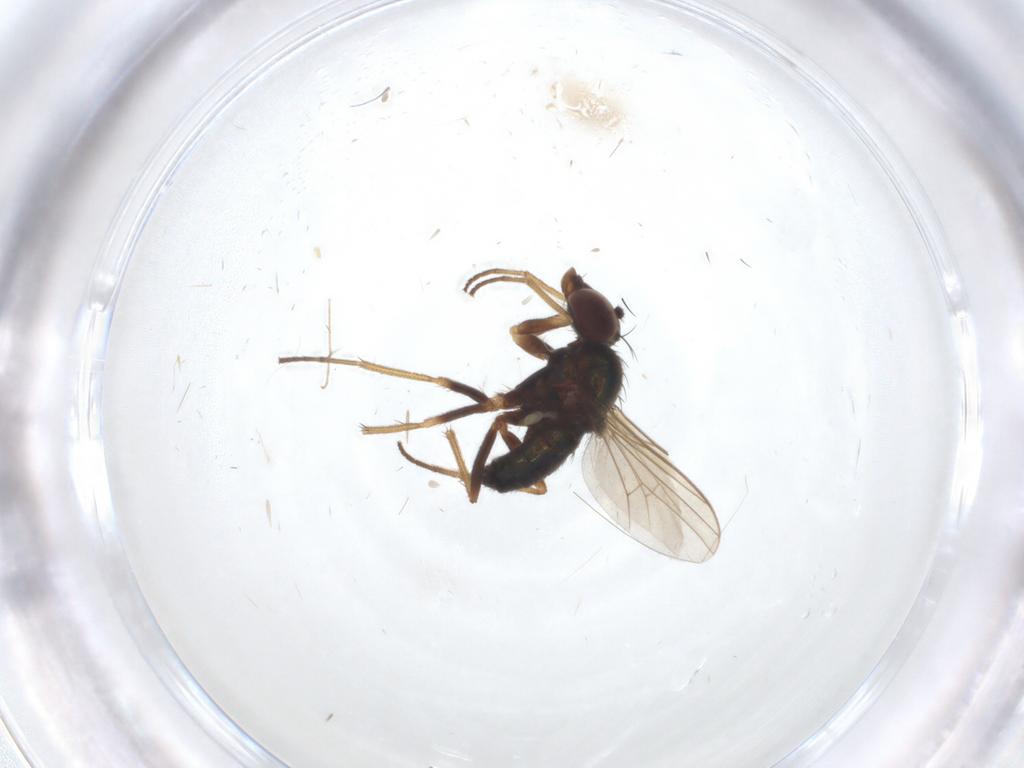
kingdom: Animalia
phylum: Arthropoda
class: Insecta
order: Diptera
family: Dolichopodidae
